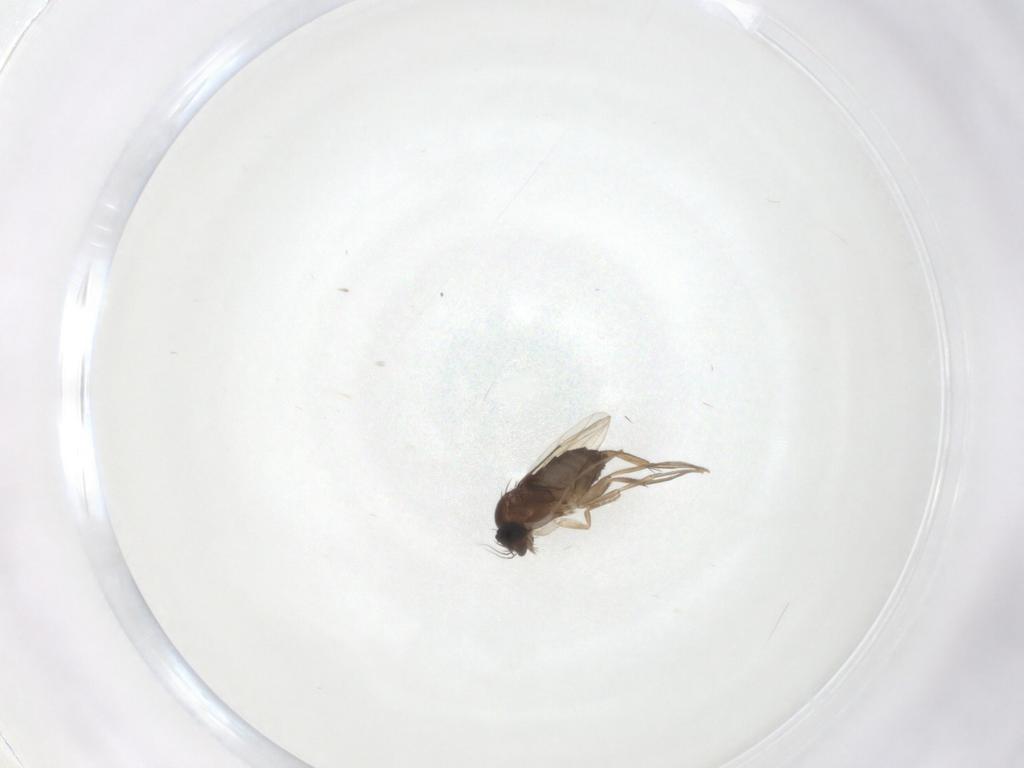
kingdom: Animalia
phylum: Arthropoda
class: Insecta
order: Diptera
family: Phoridae
